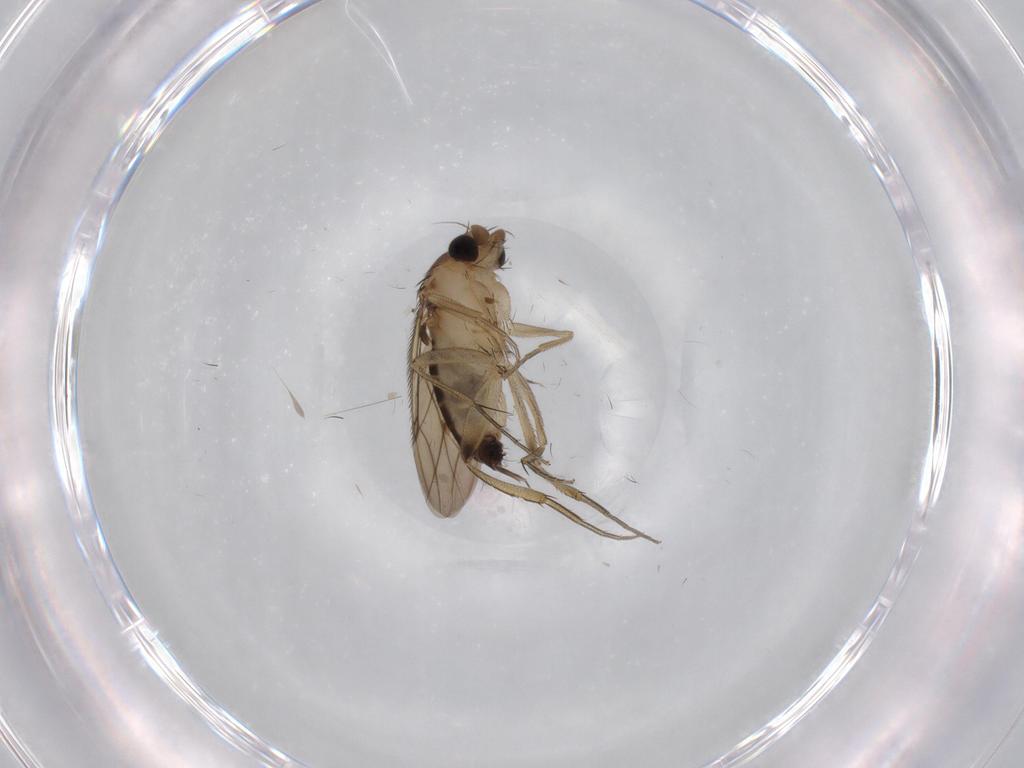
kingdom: Animalia
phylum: Arthropoda
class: Insecta
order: Diptera
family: Phoridae
